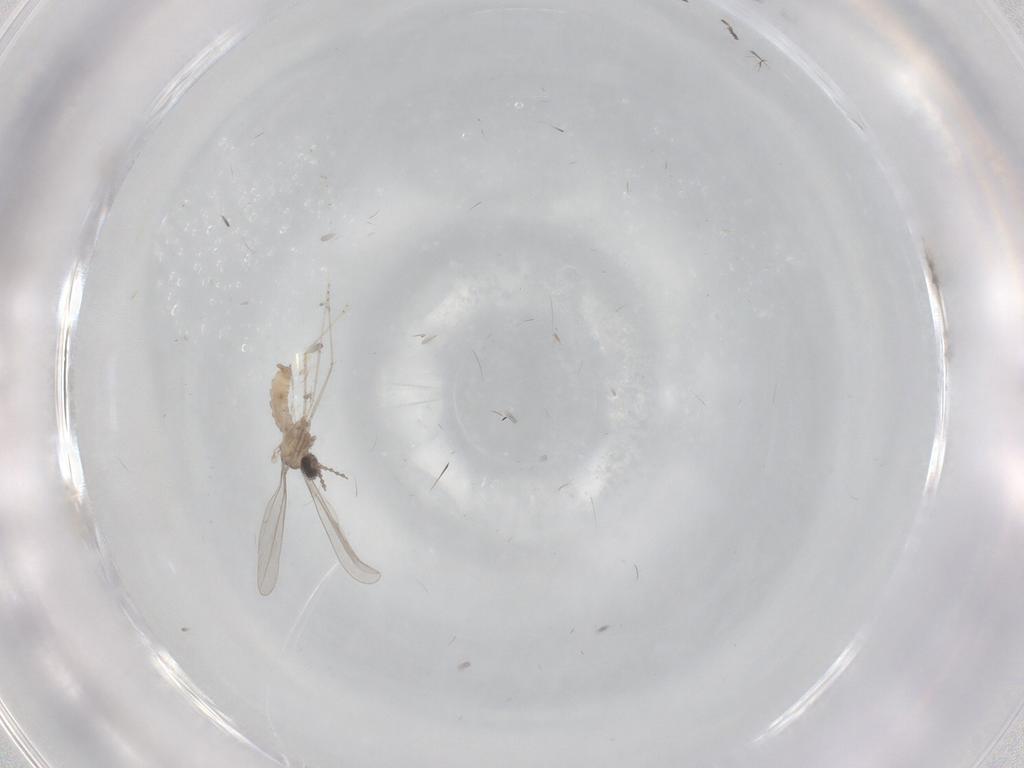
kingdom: Animalia
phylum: Arthropoda
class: Insecta
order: Diptera
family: Cecidomyiidae
